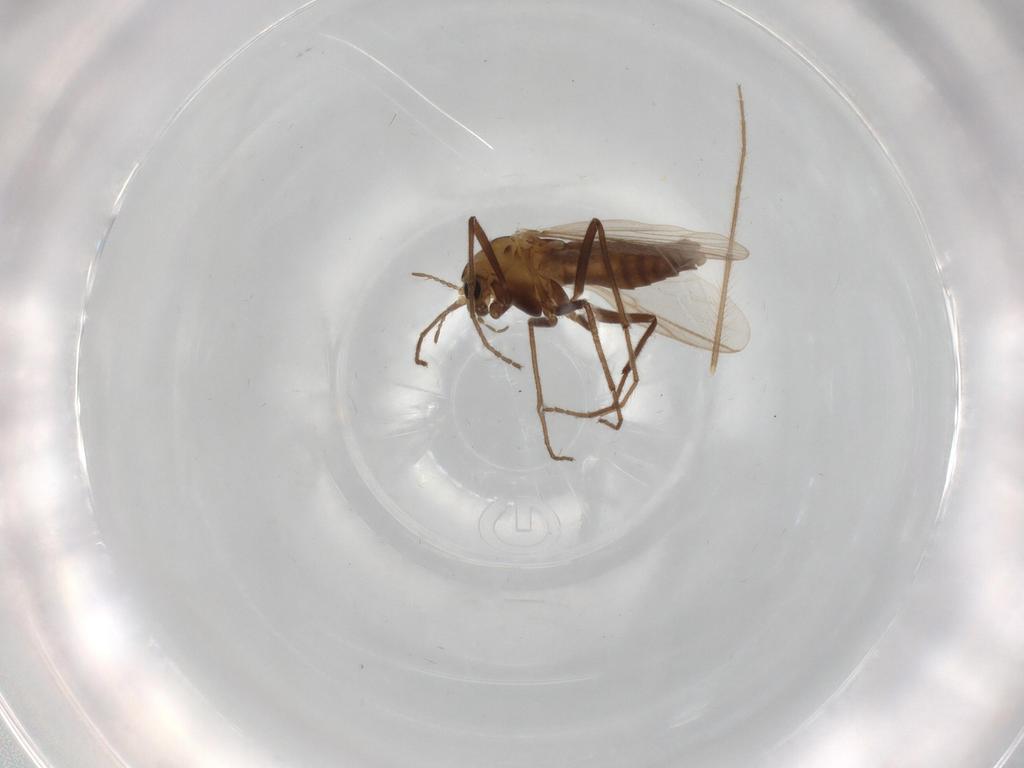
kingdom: Animalia
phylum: Arthropoda
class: Insecta
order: Diptera
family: Chironomidae
